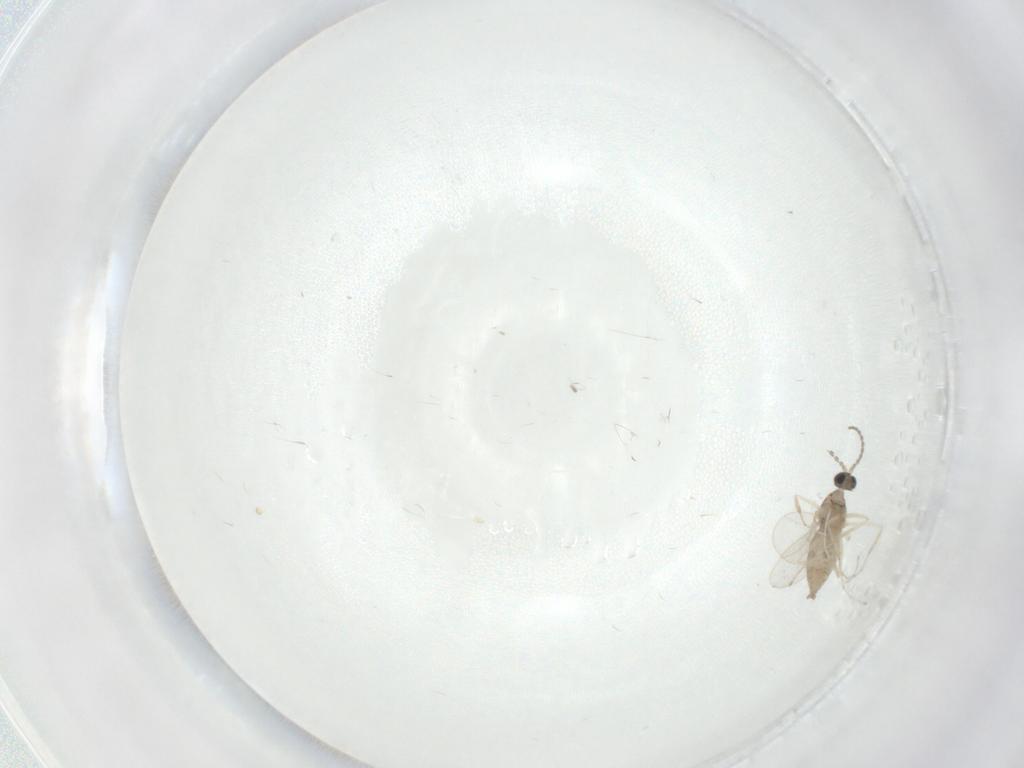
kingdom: Animalia
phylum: Arthropoda
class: Insecta
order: Diptera
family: Cecidomyiidae
